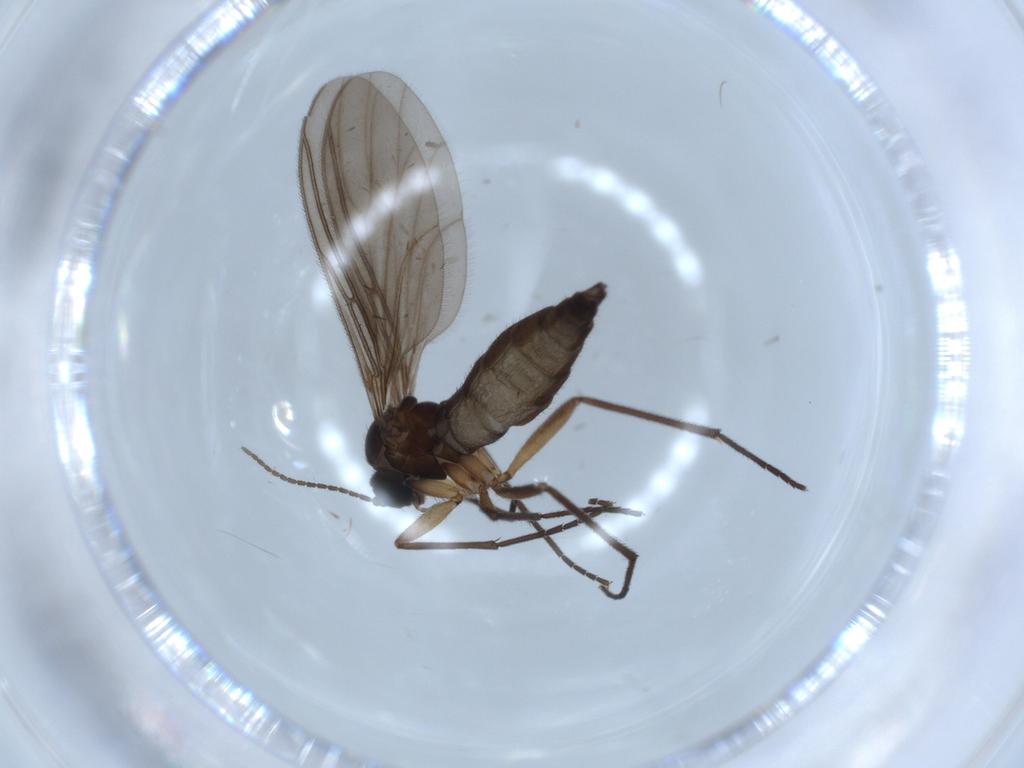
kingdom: Animalia
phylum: Arthropoda
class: Insecta
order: Diptera
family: Sciaridae
